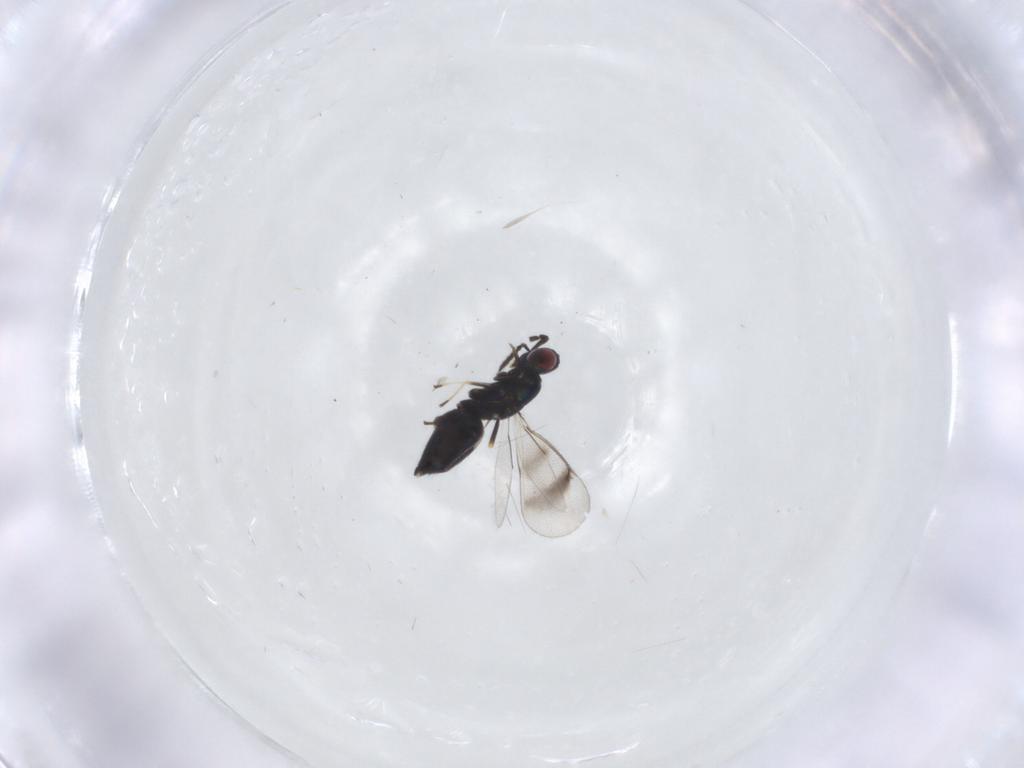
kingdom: Animalia
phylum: Arthropoda
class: Insecta
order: Hymenoptera
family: Eulophidae
